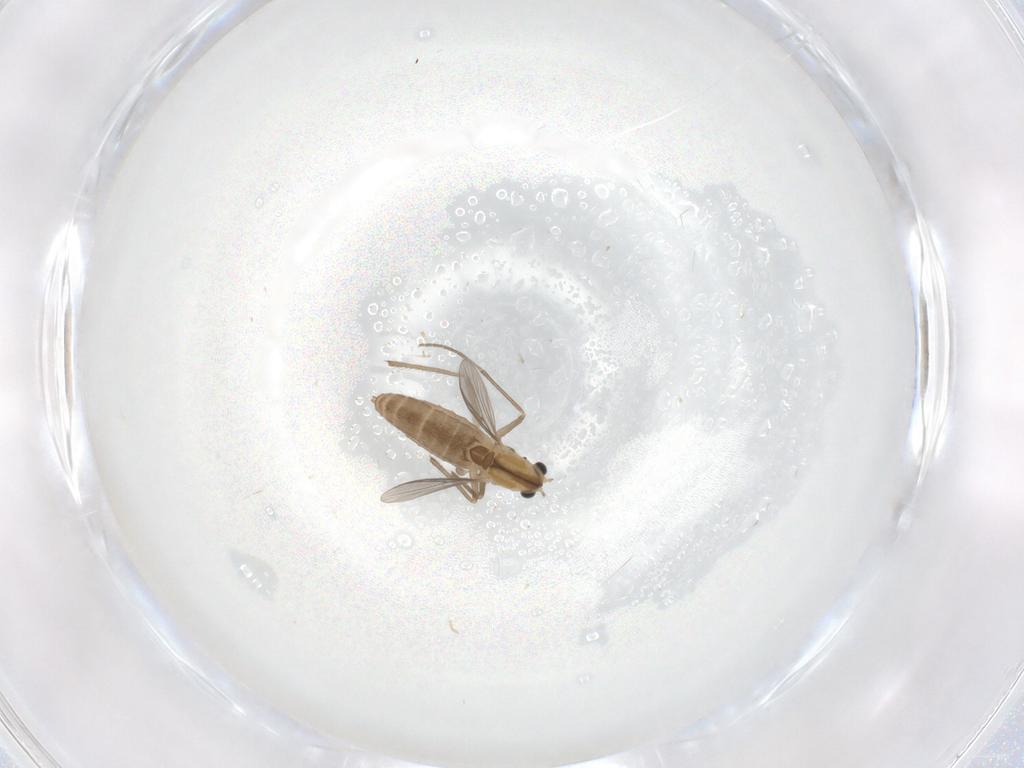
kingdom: Animalia
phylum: Arthropoda
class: Insecta
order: Diptera
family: Chironomidae
